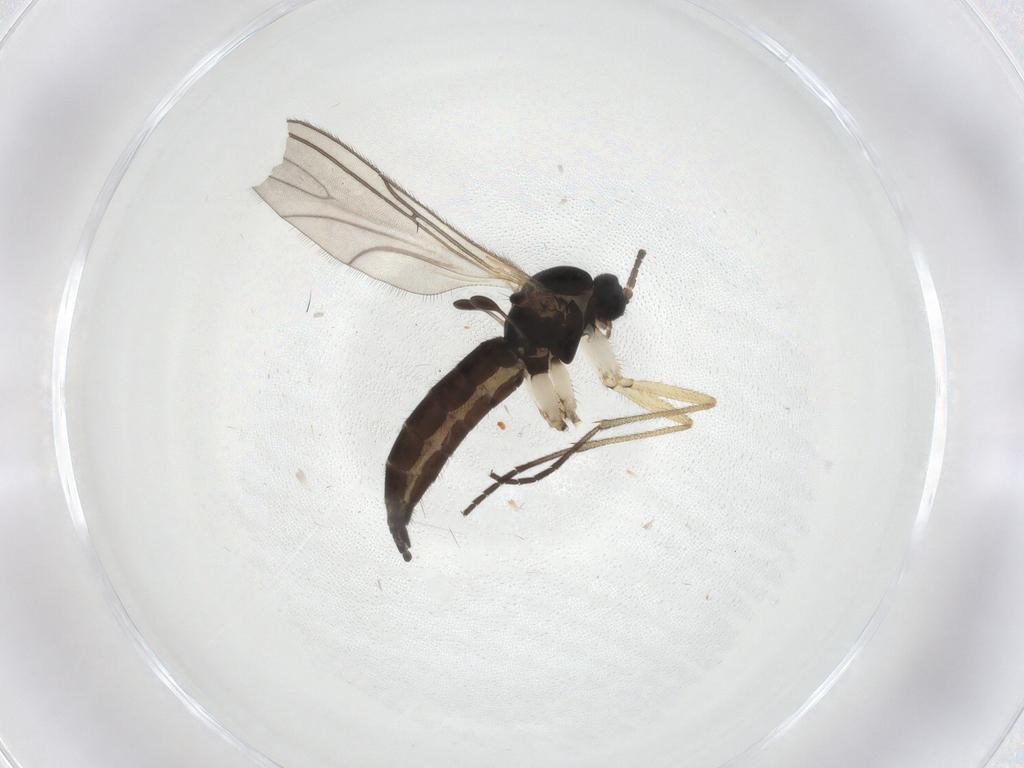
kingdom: Animalia
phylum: Arthropoda
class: Insecta
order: Diptera
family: Sciaridae
